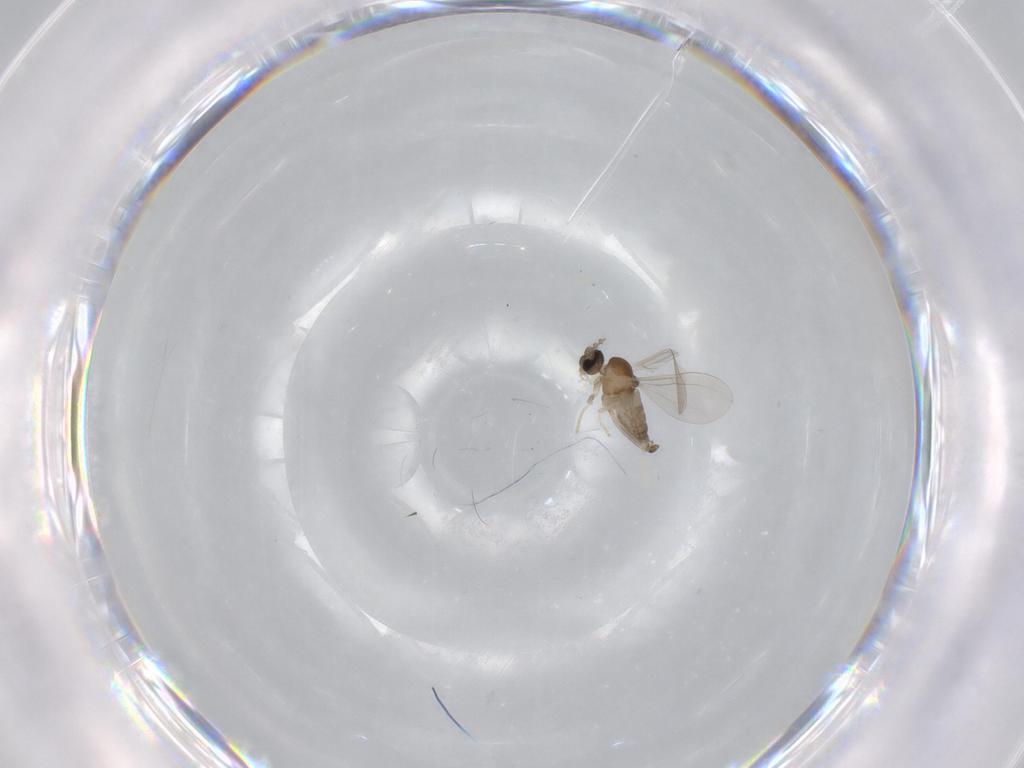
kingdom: Animalia
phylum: Arthropoda
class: Insecta
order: Diptera
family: Cecidomyiidae
